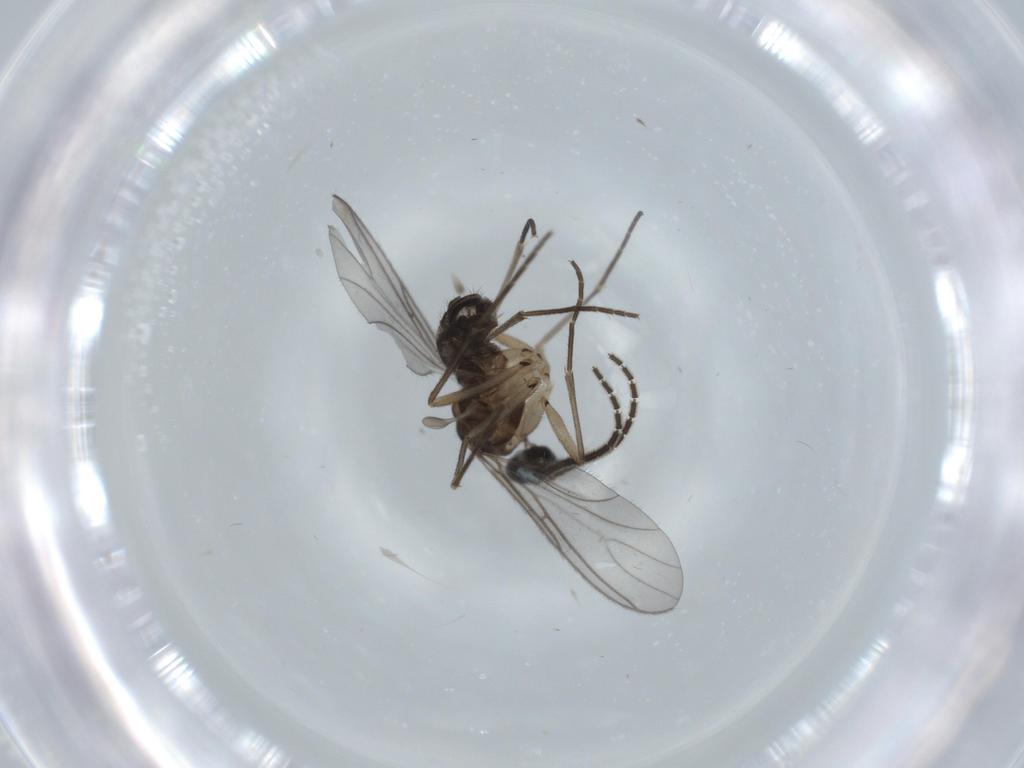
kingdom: Animalia
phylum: Arthropoda
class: Insecta
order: Diptera
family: Sciaridae
